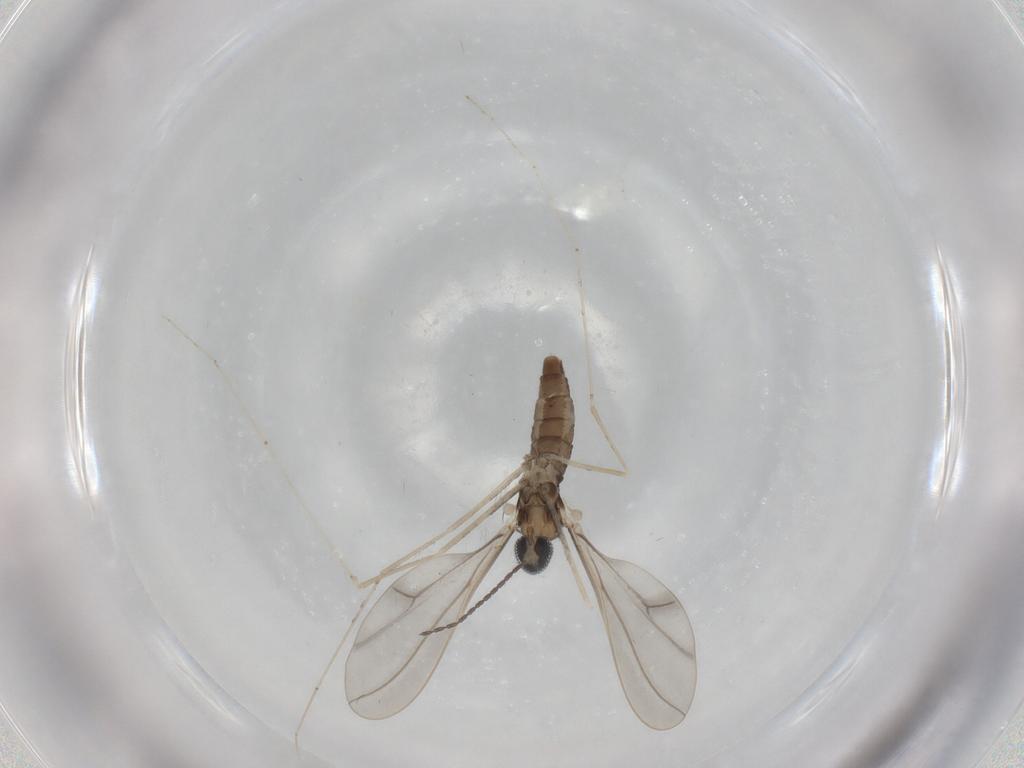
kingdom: Animalia
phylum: Arthropoda
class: Insecta
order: Diptera
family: Cecidomyiidae
